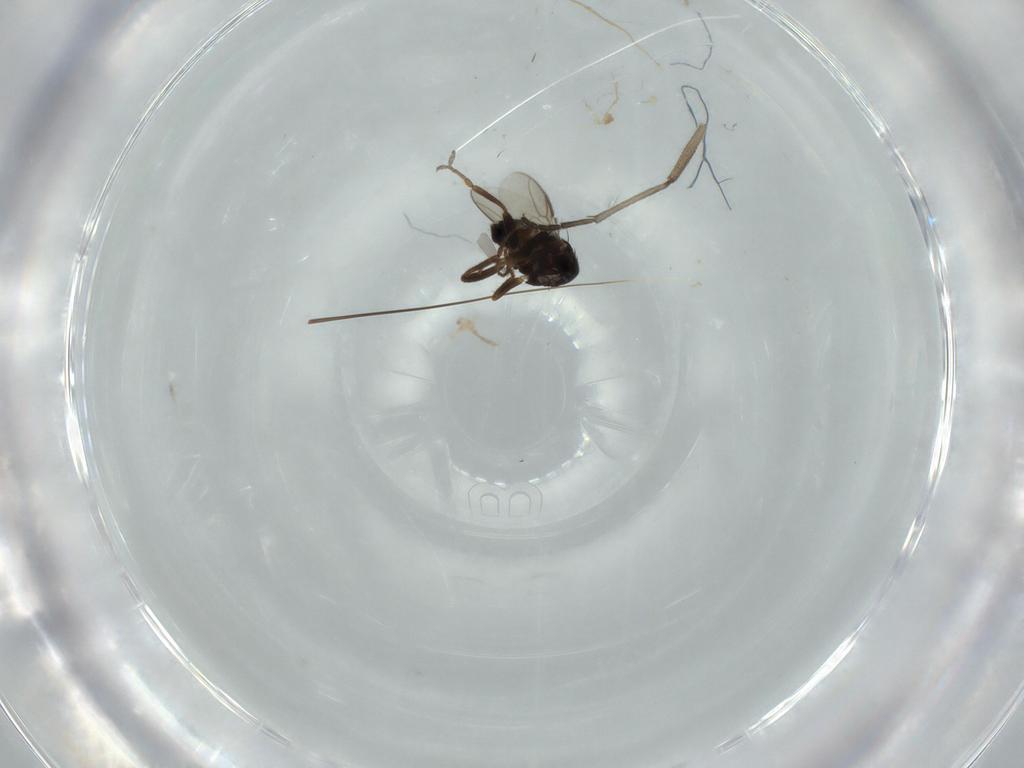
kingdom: Animalia
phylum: Arthropoda
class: Insecta
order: Diptera
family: Sphaeroceridae
